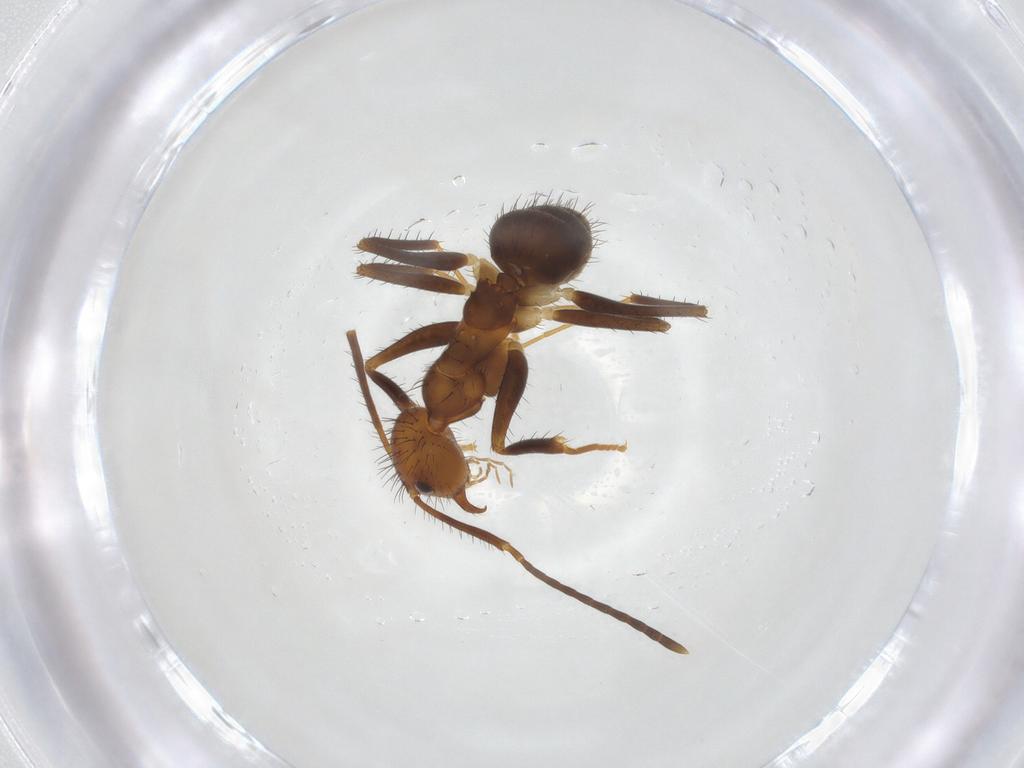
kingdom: Animalia
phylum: Arthropoda
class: Insecta
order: Hymenoptera
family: Formicidae
